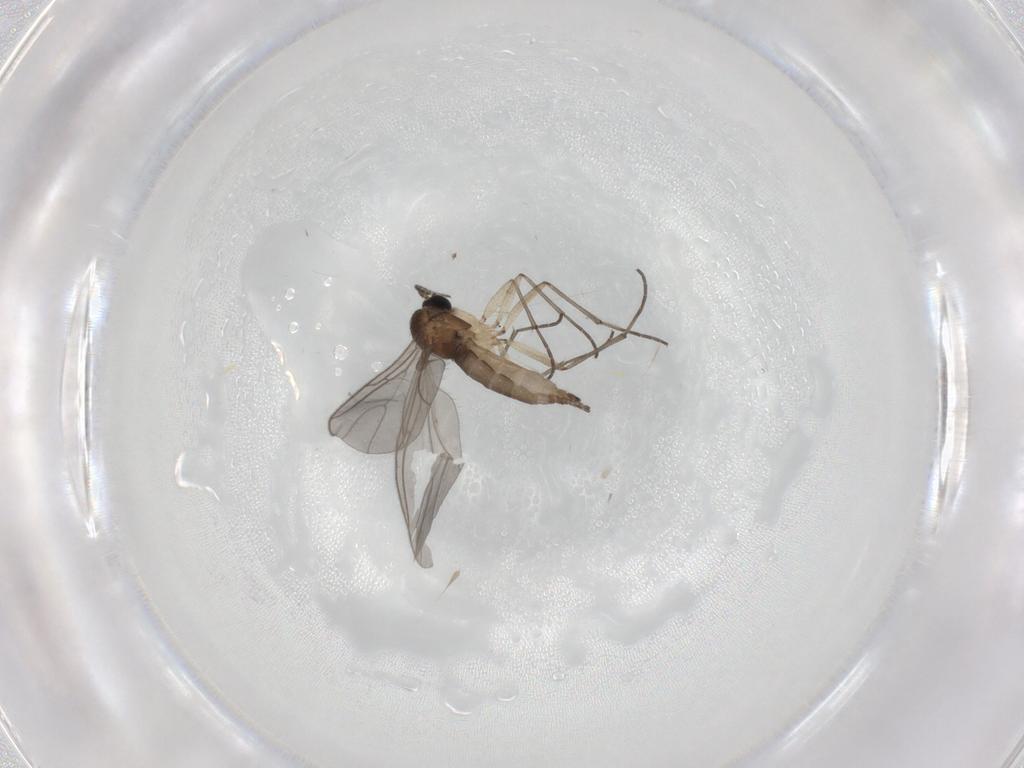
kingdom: Animalia
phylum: Arthropoda
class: Insecta
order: Diptera
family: Sciaridae
